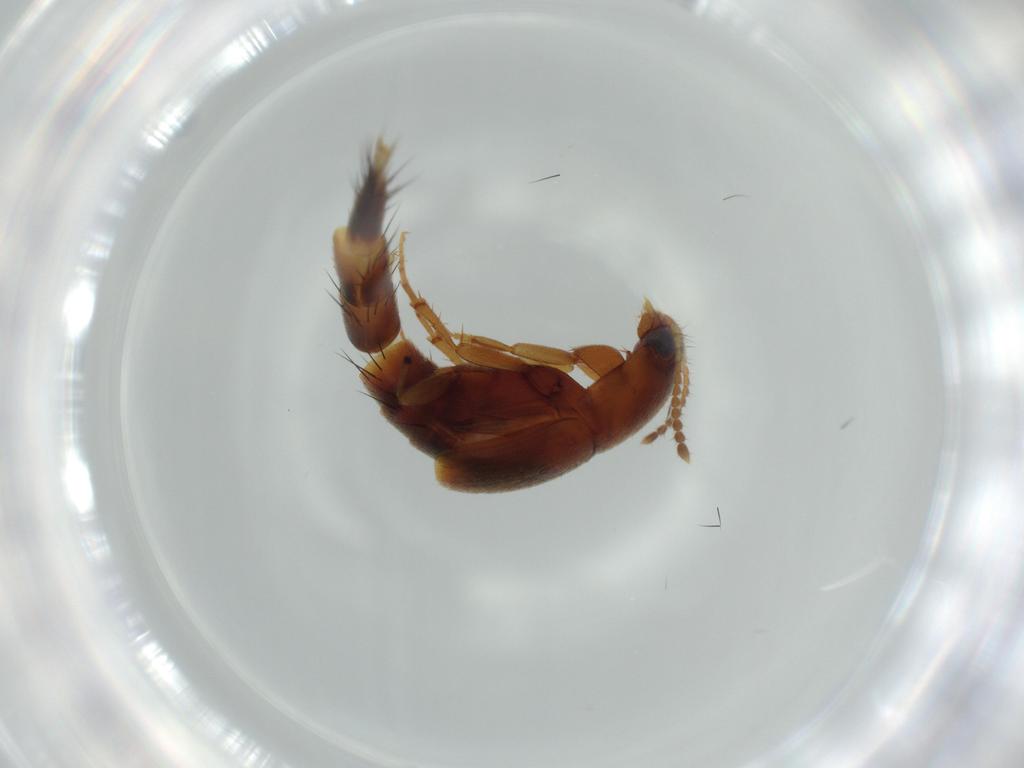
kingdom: Animalia
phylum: Arthropoda
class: Insecta
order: Coleoptera
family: Staphylinidae
